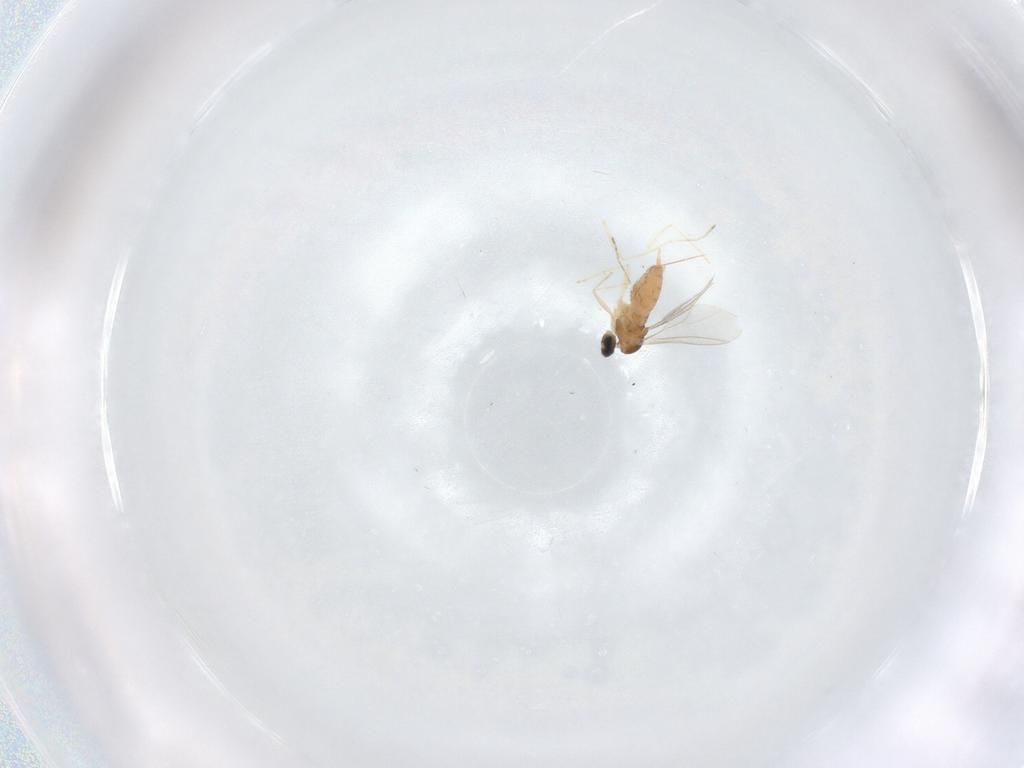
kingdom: Animalia
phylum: Arthropoda
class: Insecta
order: Diptera
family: Cecidomyiidae
